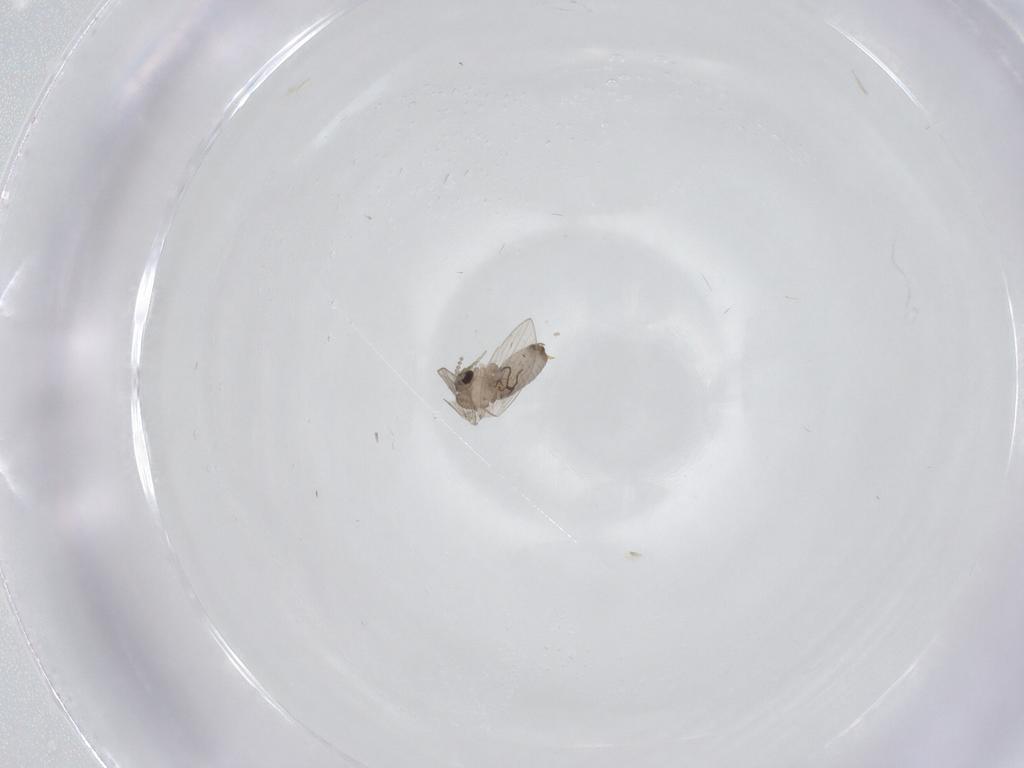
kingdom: Animalia
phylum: Arthropoda
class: Insecta
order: Diptera
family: Psychodidae
